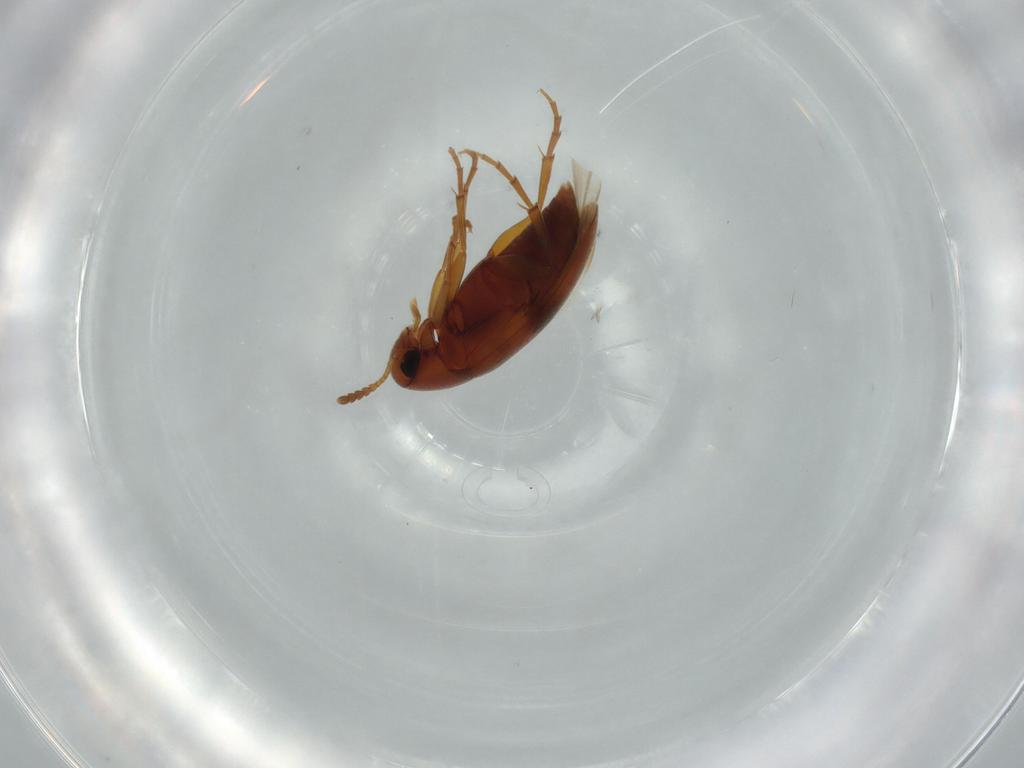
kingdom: Animalia
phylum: Arthropoda
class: Insecta
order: Coleoptera
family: Scraptiidae
